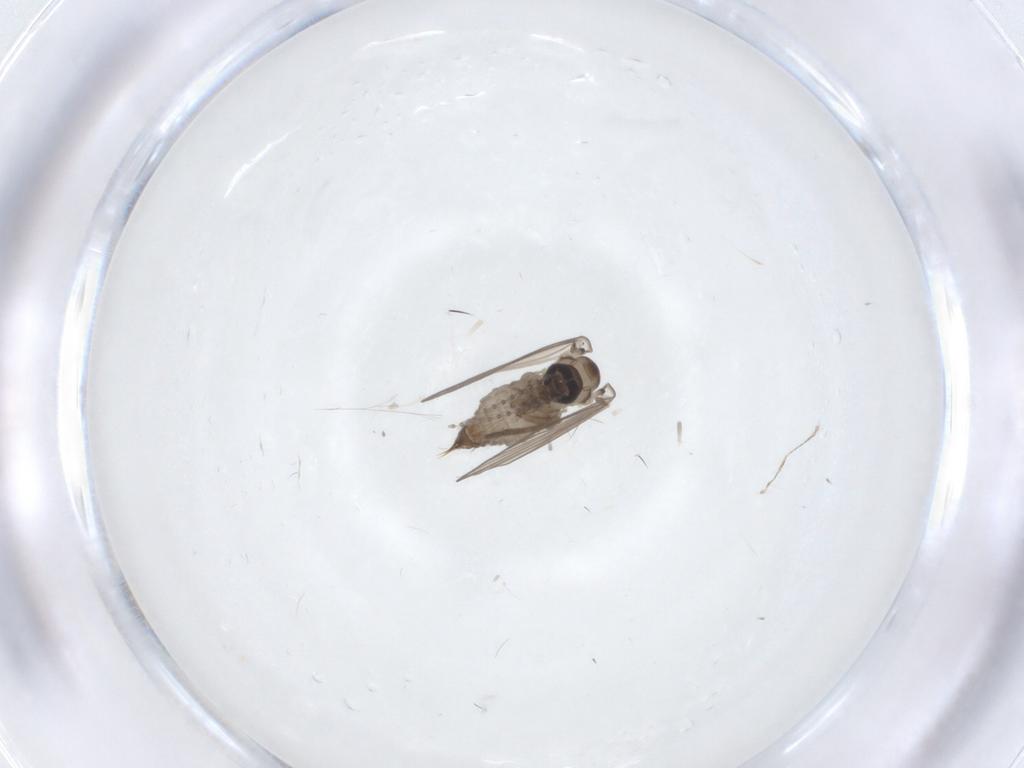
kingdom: Animalia
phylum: Arthropoda
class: Insecta
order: Diptera
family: Psychodidae
